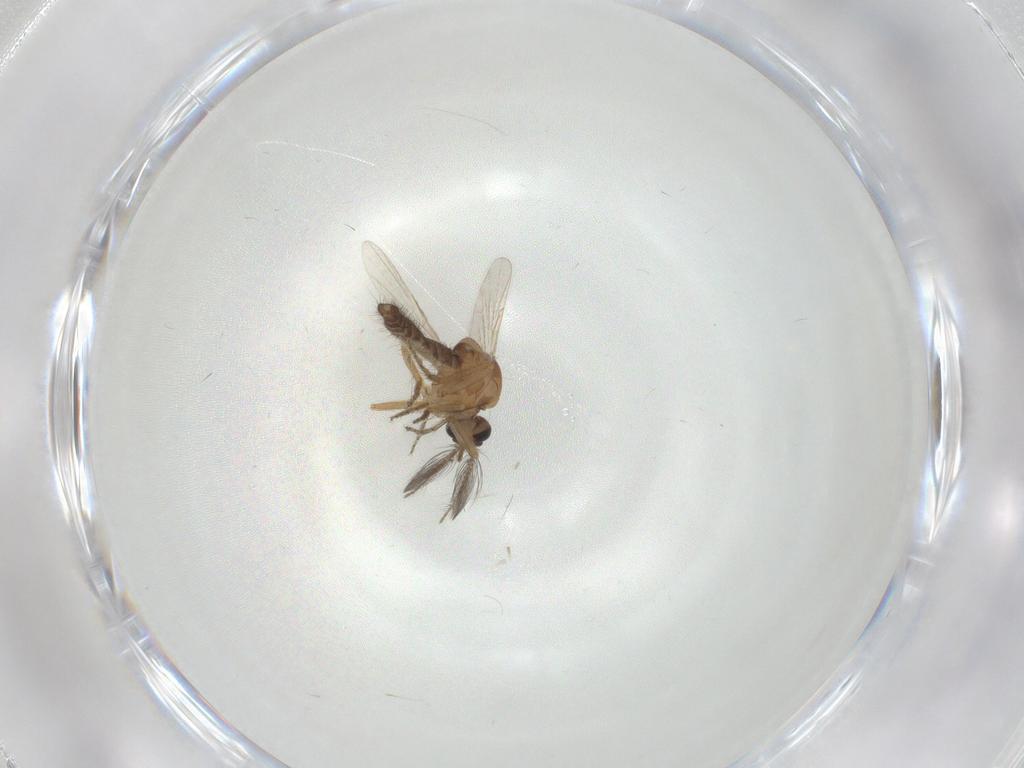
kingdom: Animalia
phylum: Arthropoda
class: Insecta
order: Diptera
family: Ceratopogonidae
